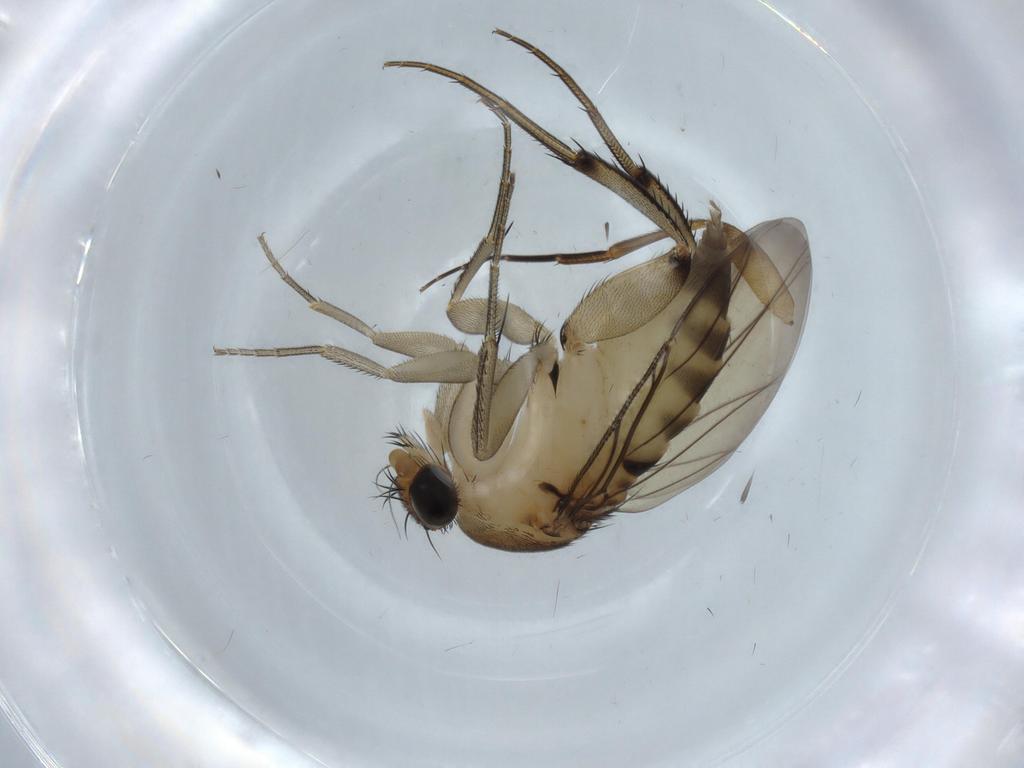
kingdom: Animalia
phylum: Arthropoda
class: Insecta
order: Diptera
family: Phoridae
